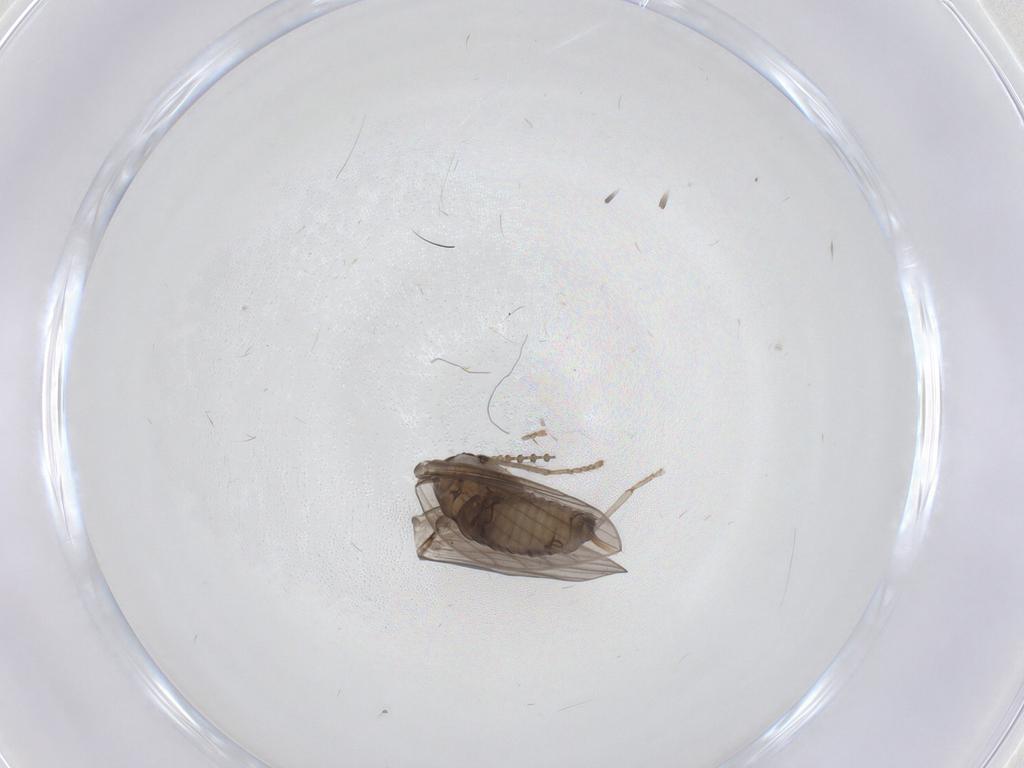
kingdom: Animalia
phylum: Arthropoda
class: Insecta
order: Diptera
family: Psychodidae
